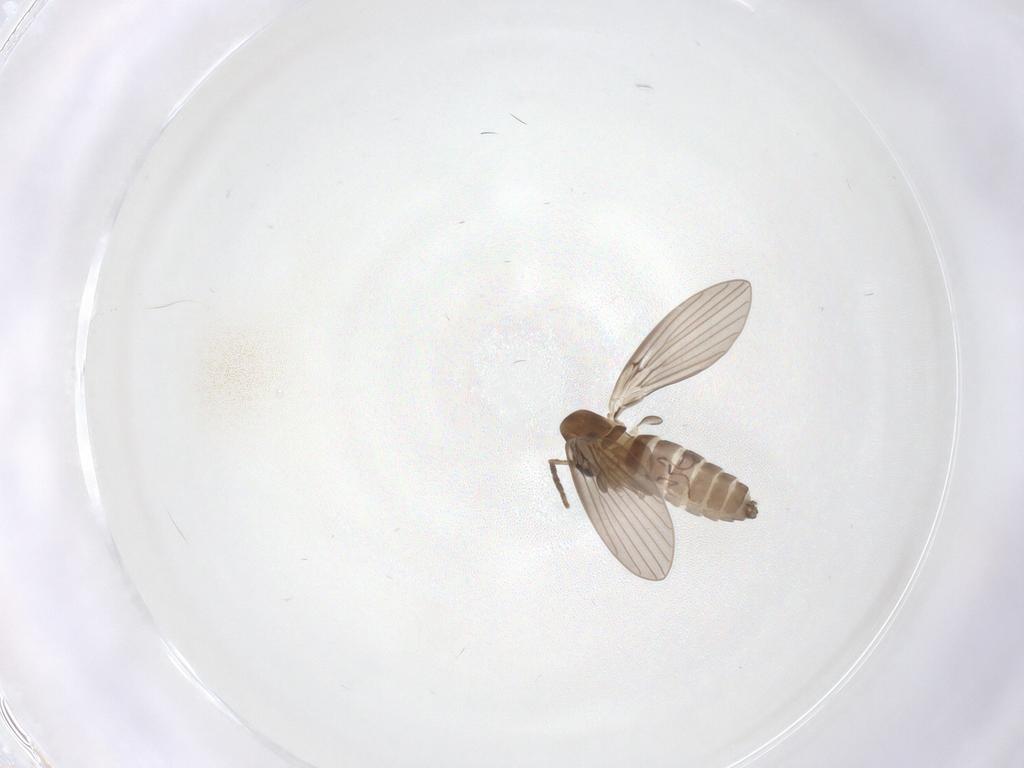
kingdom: Animalia
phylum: Arthropoda
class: Insecta
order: Diptera
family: Psychodidae
